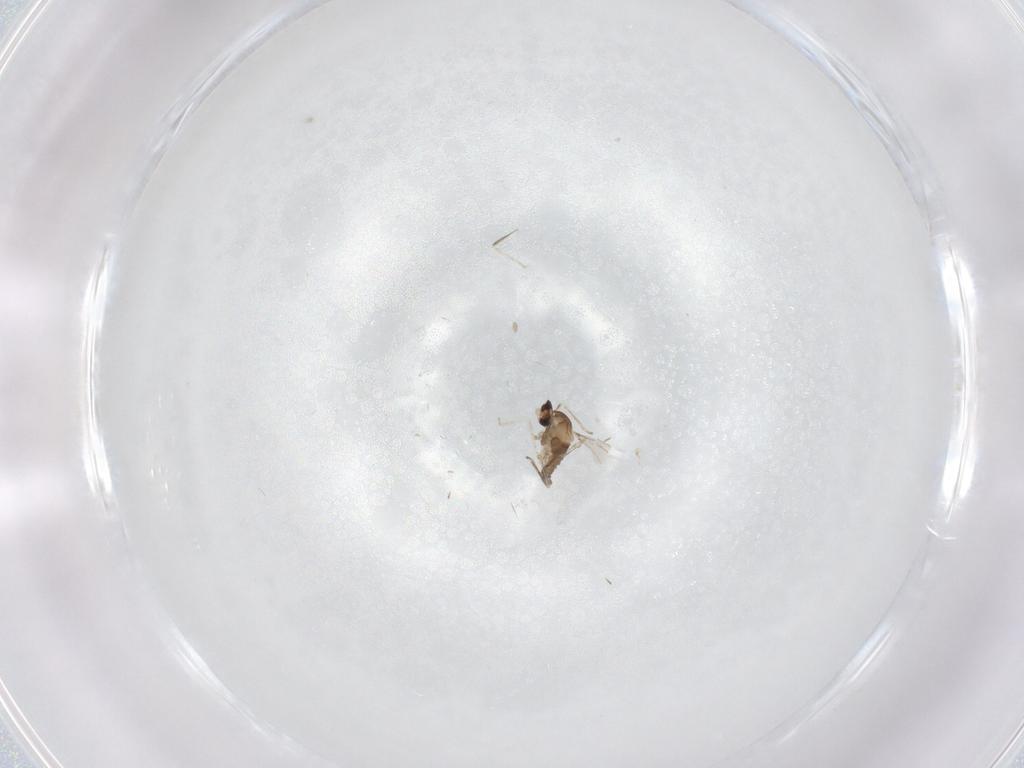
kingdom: Animalia
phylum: Arthropoda
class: Insecta
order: Diptera
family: Cecidomyiidae
